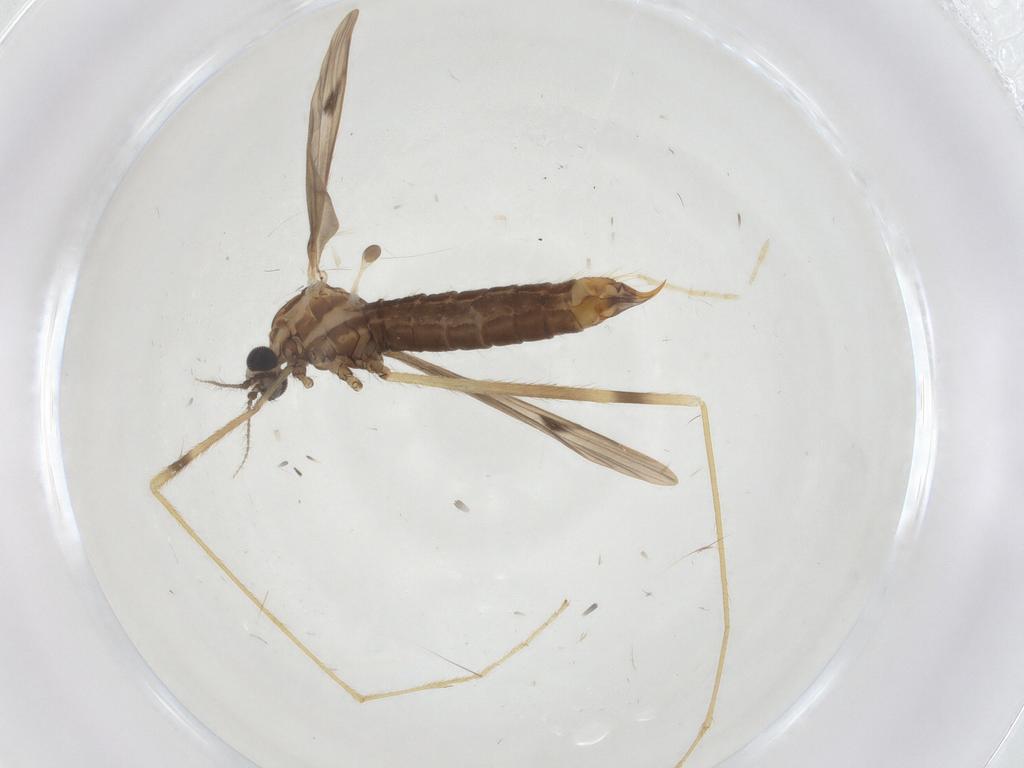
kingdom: Animalia
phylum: Arthropoda
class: Insecta
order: Diptera
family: Limoniidae
